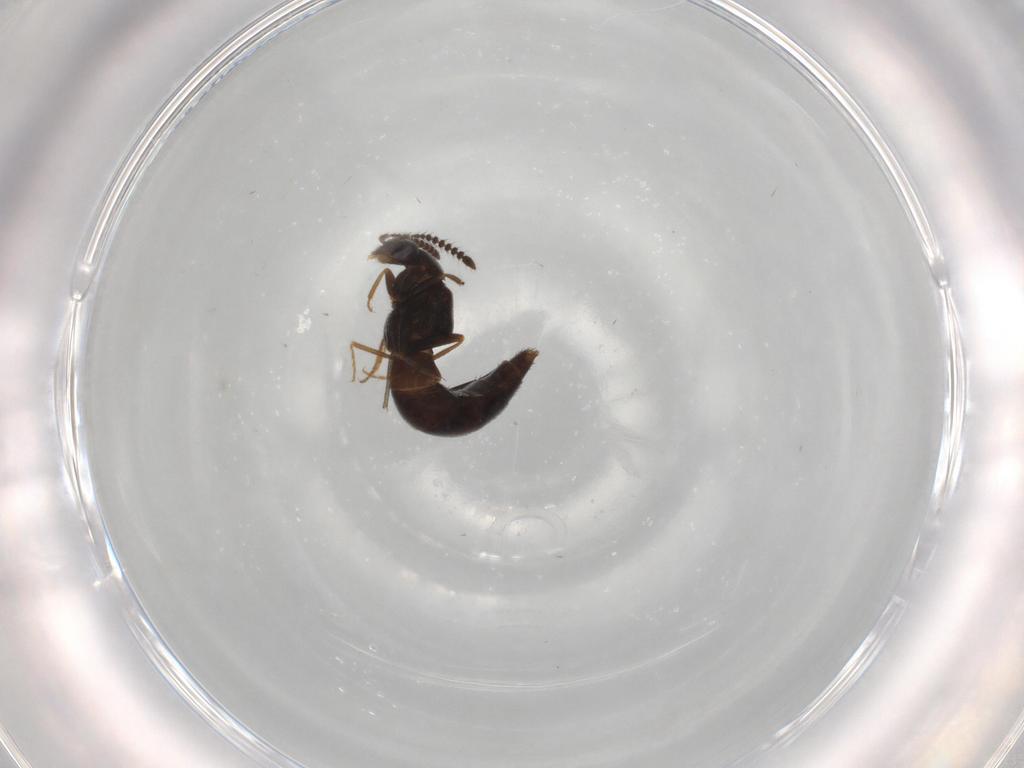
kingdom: Animalia
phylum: Arthropoda
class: Insecta
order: Coleoptera
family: Staphylinidae
